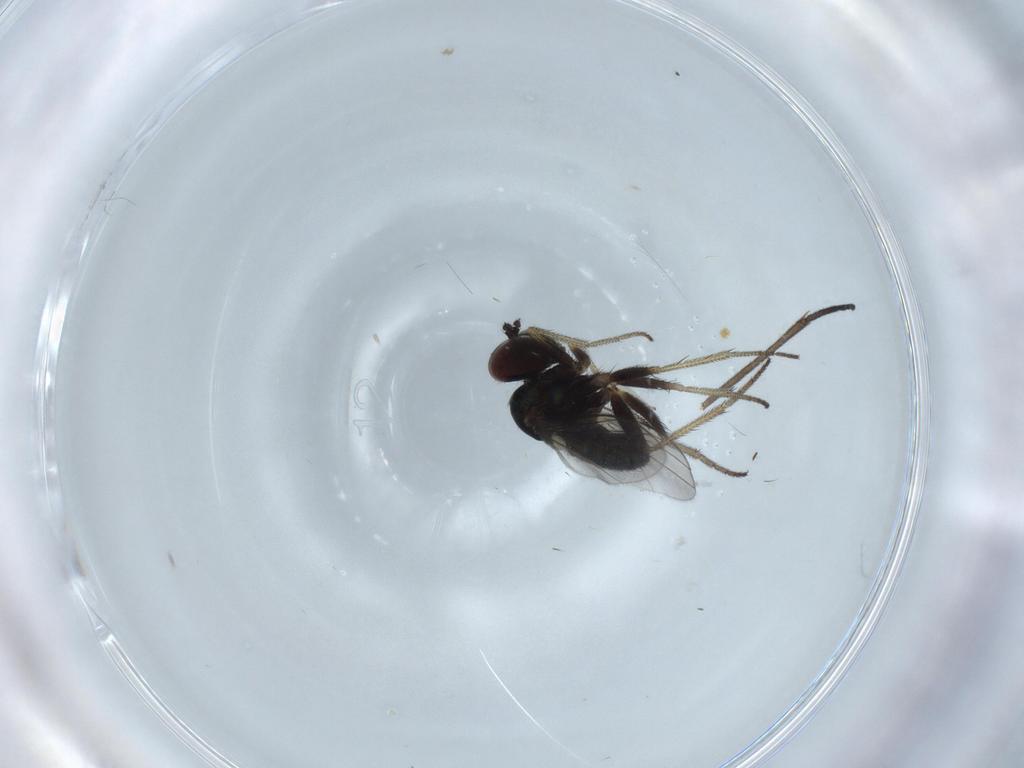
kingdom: Animalia
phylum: Arthropoda
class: Insecta
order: Diptera
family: Cecidomyiidae
